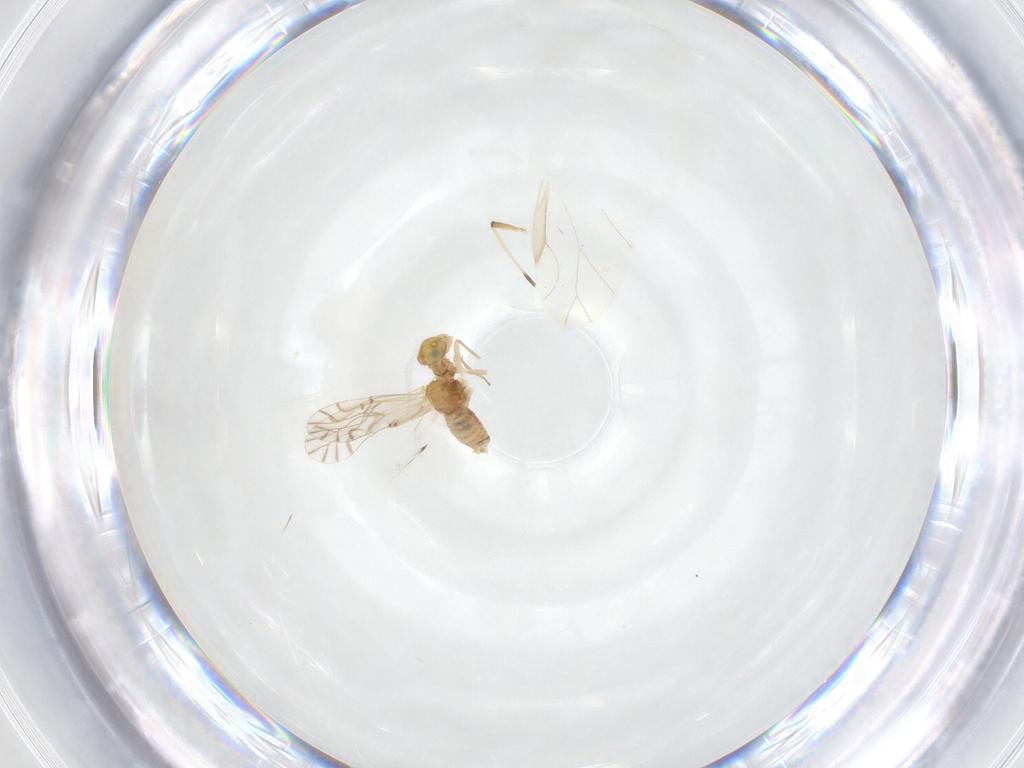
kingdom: Animalia
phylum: Arthropoda
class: Insecta
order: Psocodea
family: Lachesillidae
